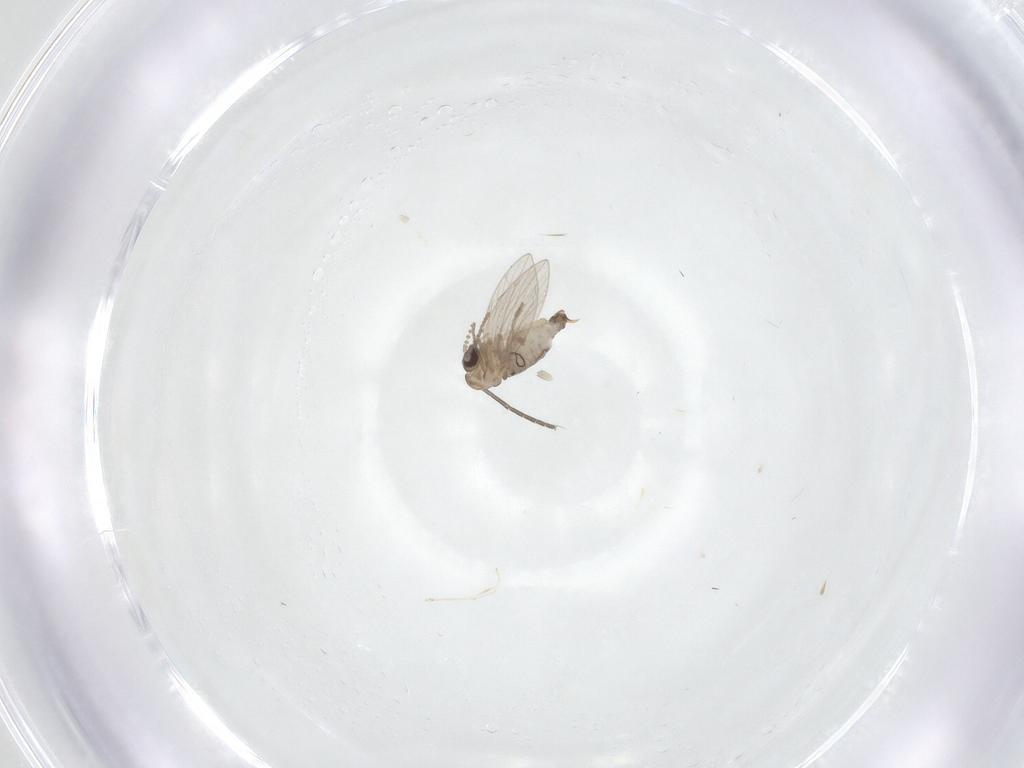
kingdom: Animalia
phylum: Arthropoda
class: Insecta
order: Diptera
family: Psychodidae
